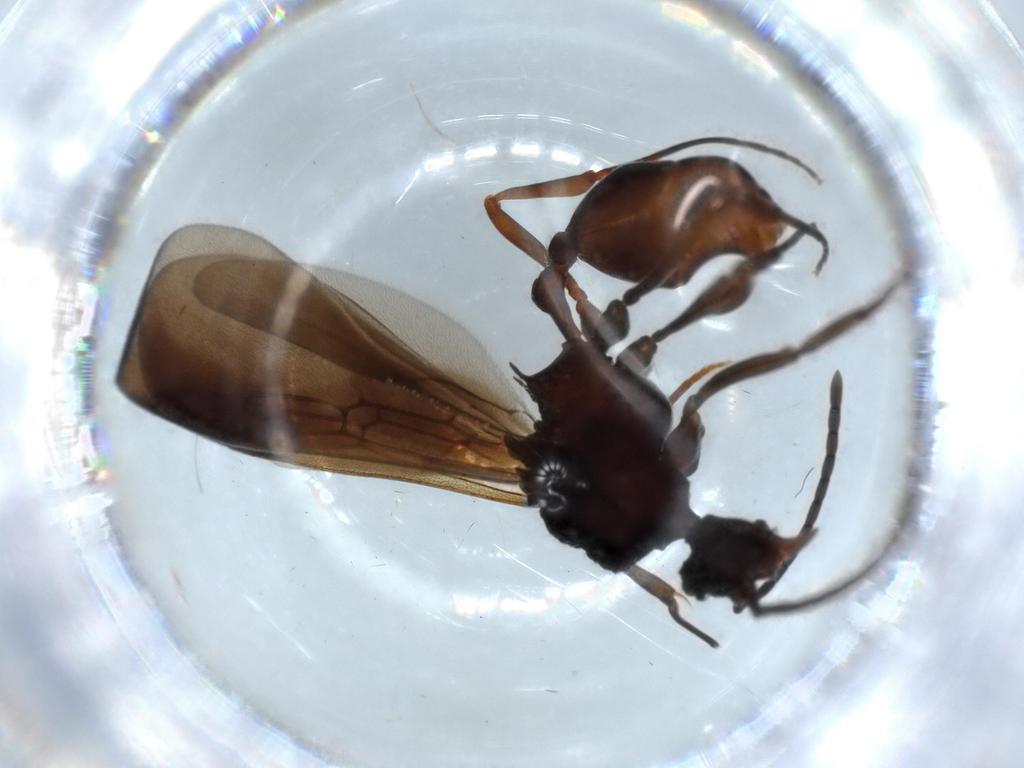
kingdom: Animalia
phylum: Arthropoda
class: Insecta
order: Hymenoptera
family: Formicidae
